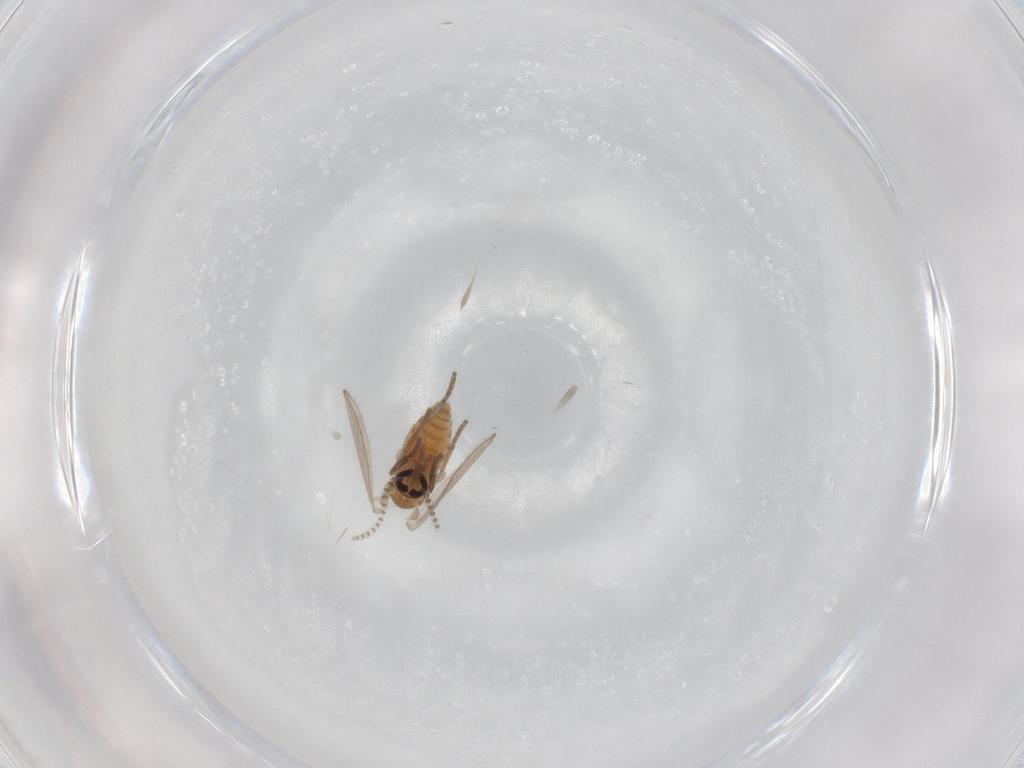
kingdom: Animalia
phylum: Arthropoda
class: Insecta
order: Diptera
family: Psychodidae
